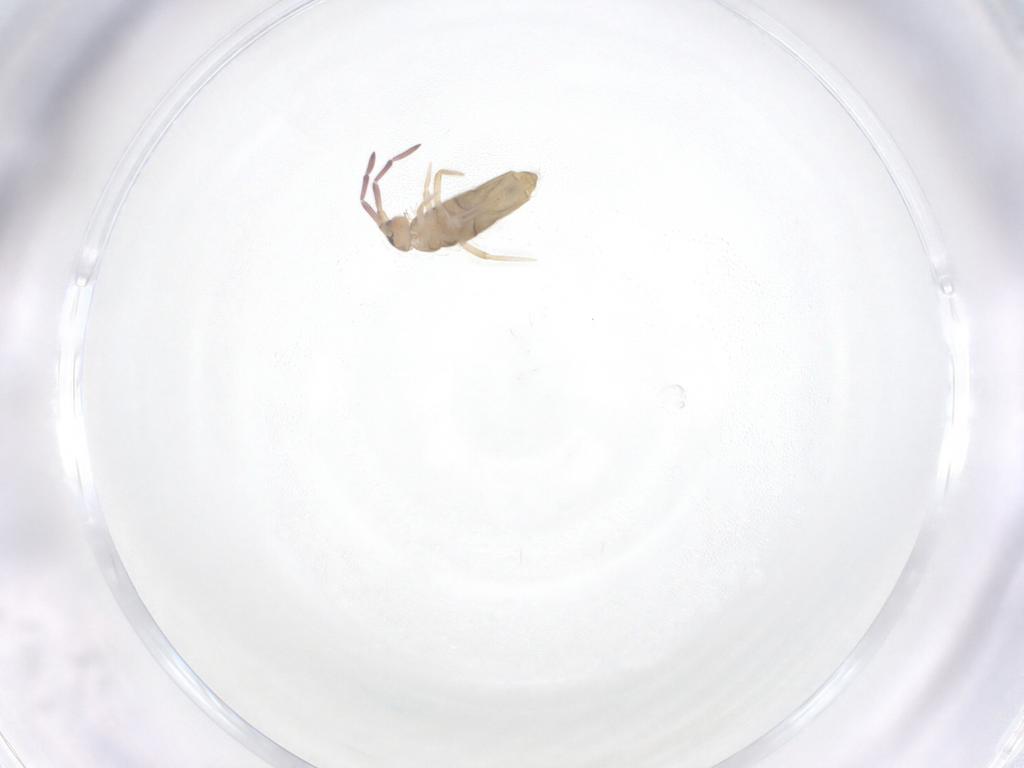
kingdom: Animalia
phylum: Arthropoda
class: Collembola
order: Entomobryomorpha
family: Entomobryidae
